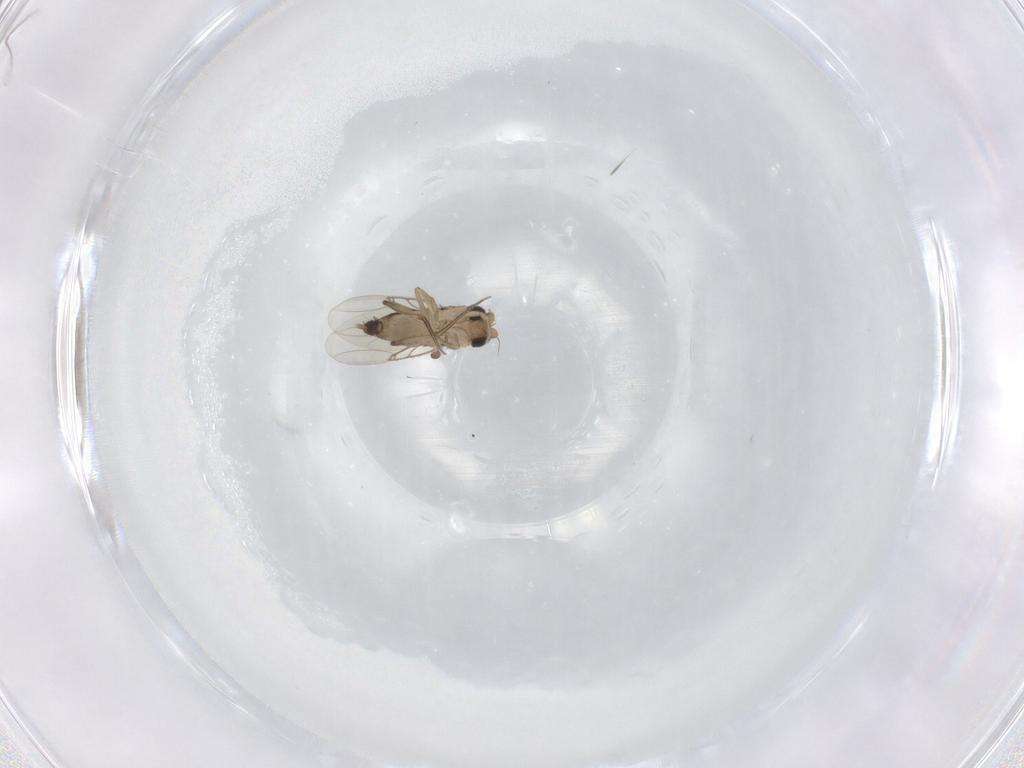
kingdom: Animalia
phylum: Arthropoda
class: Insecta
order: Diptera
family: Phoridae
